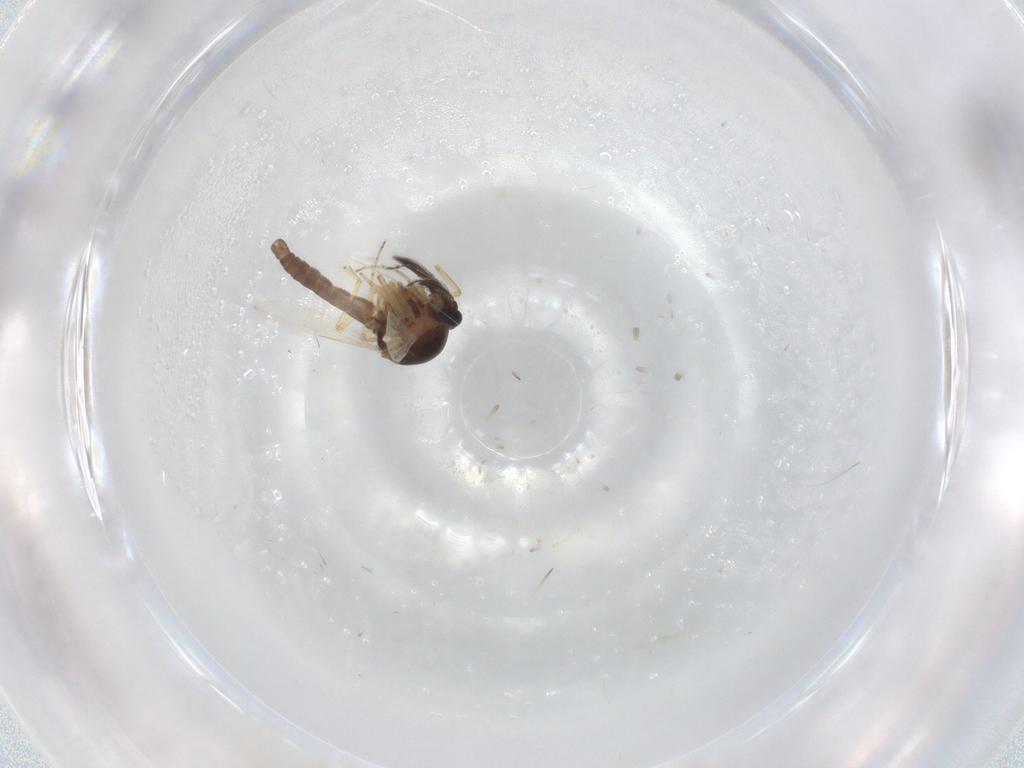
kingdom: Animalia
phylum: Arthropoda
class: Insecta
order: Diptera
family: Ceratopogonidae
